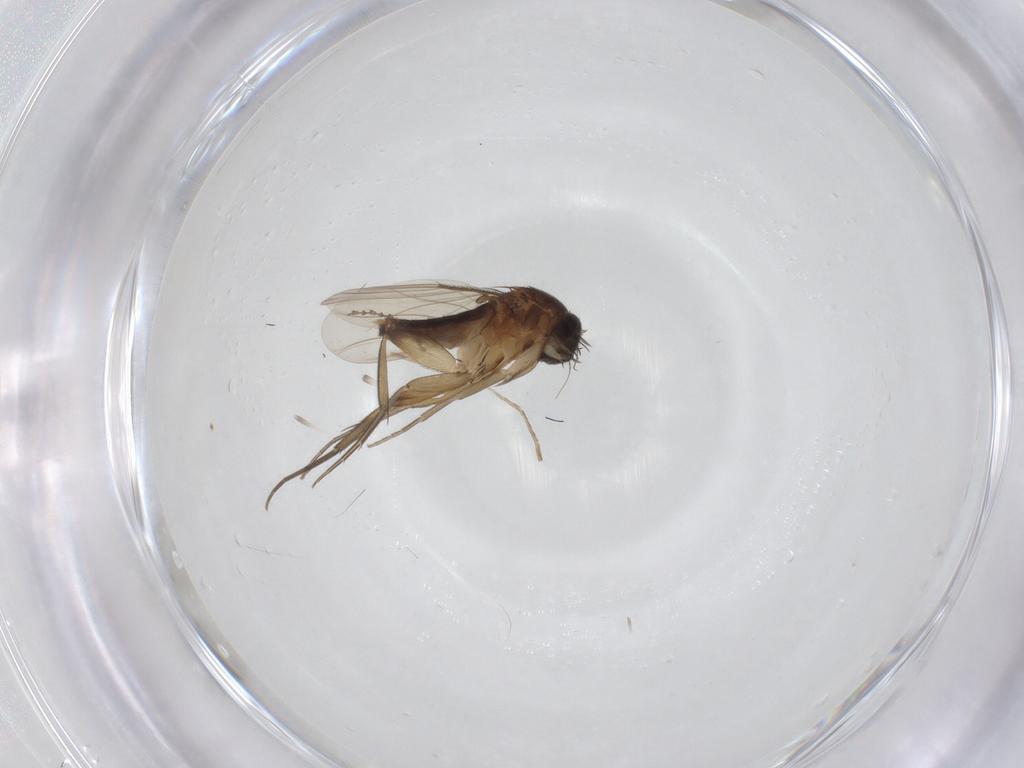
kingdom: Animalia
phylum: Arthropoda
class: Insecta
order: Diptera
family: Phoridae
